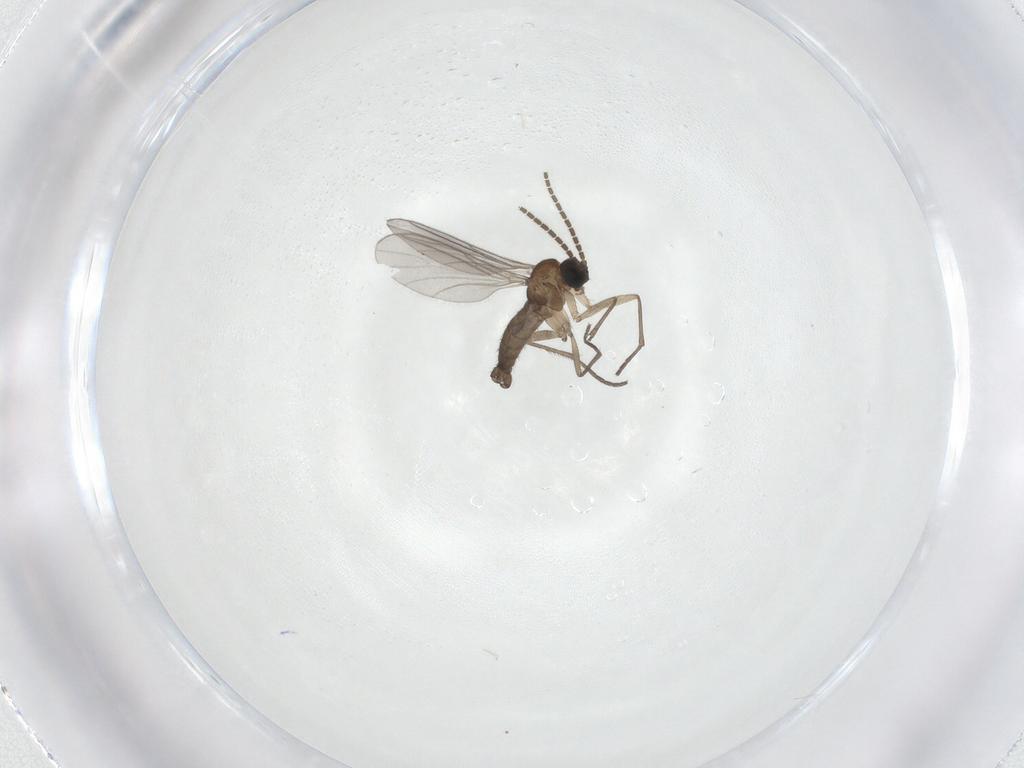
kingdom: Animalia
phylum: Arthropoda
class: Insecta
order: Diptera
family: Sciaridae
